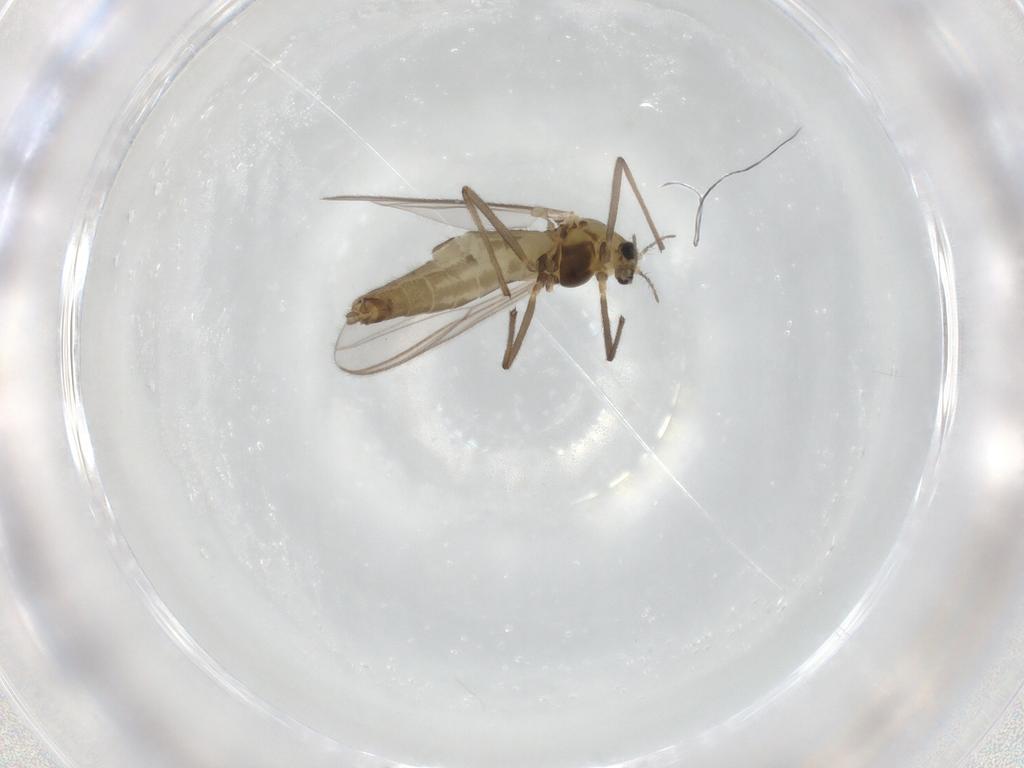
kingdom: Animalia
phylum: Arthropoda
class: Insecta
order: Diptera
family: Chironomidae
